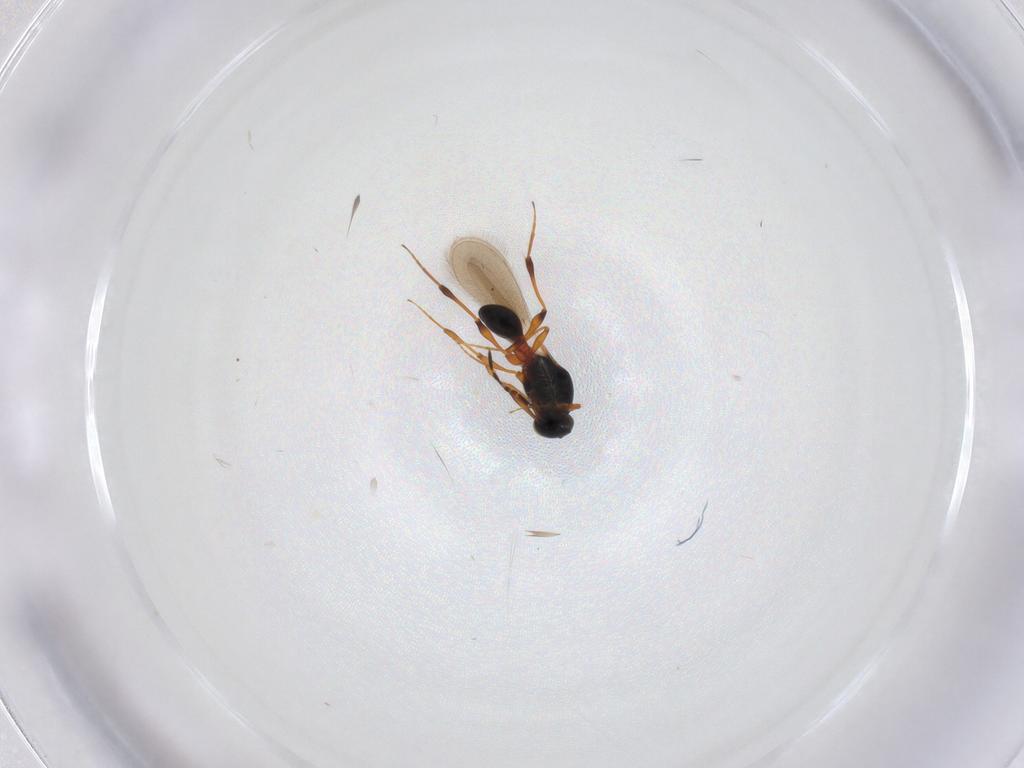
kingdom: Animalia
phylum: Arthropoda
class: Insecta
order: Hymenoptera
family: Platygastridae
